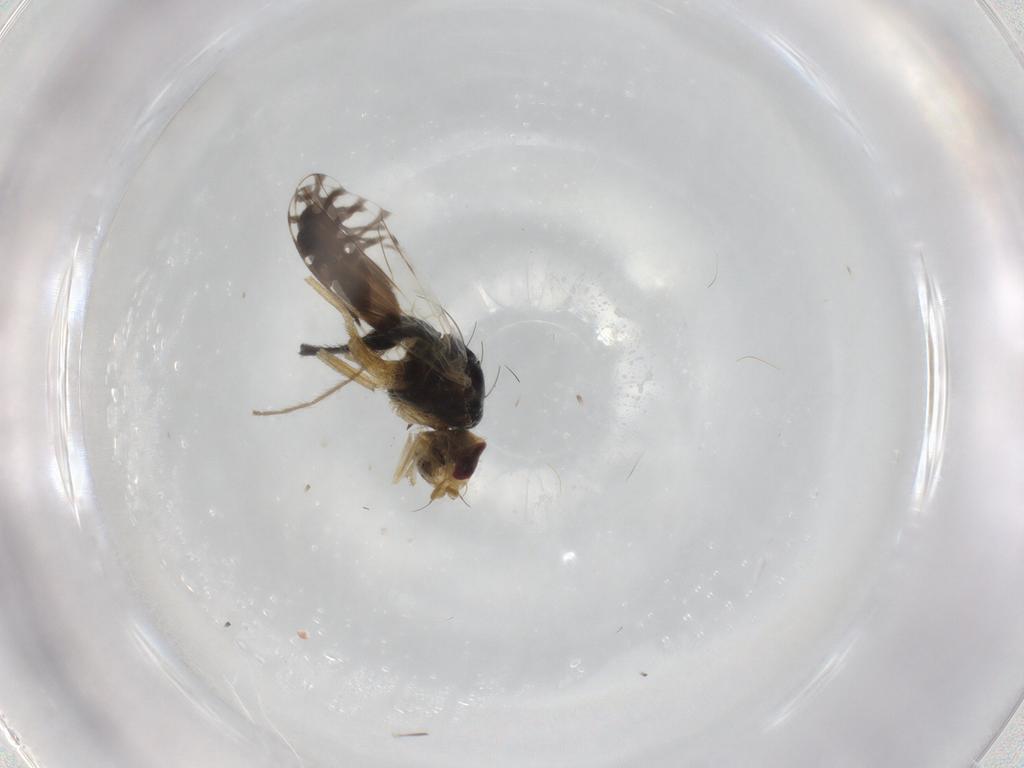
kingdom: Animalia
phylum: Arthropoda
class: Insecta
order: Diptera
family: Tephritidae
